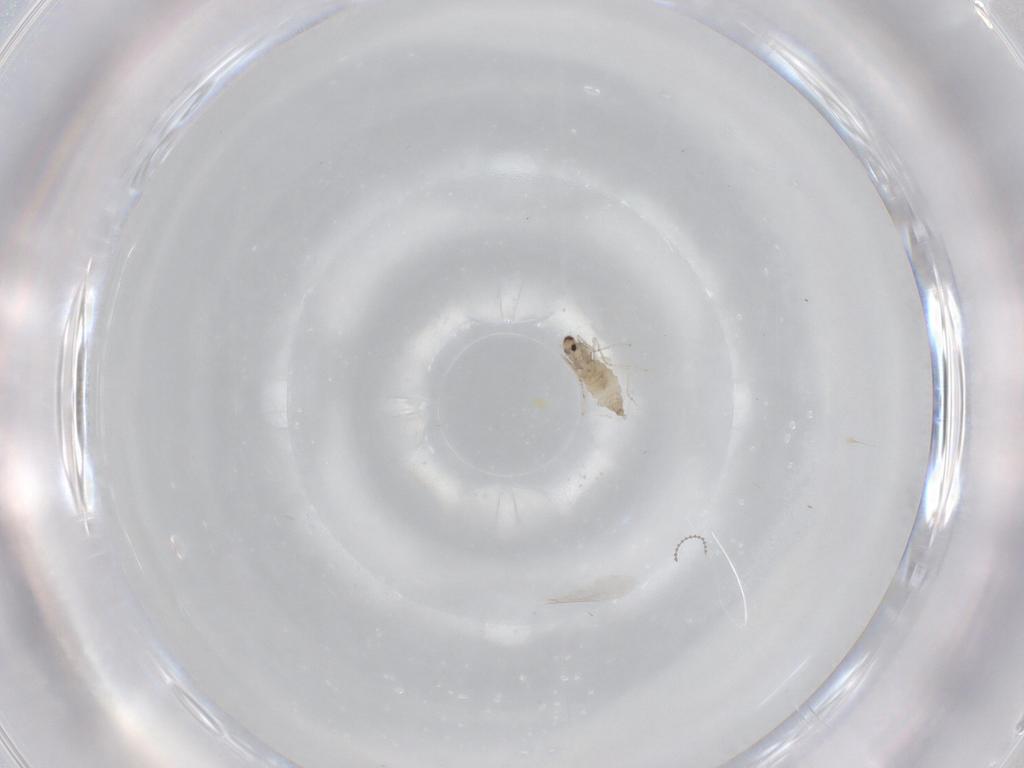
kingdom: Animalia
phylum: Arthropoda
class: Insecta
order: Diptera
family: Cecidomyiidae
